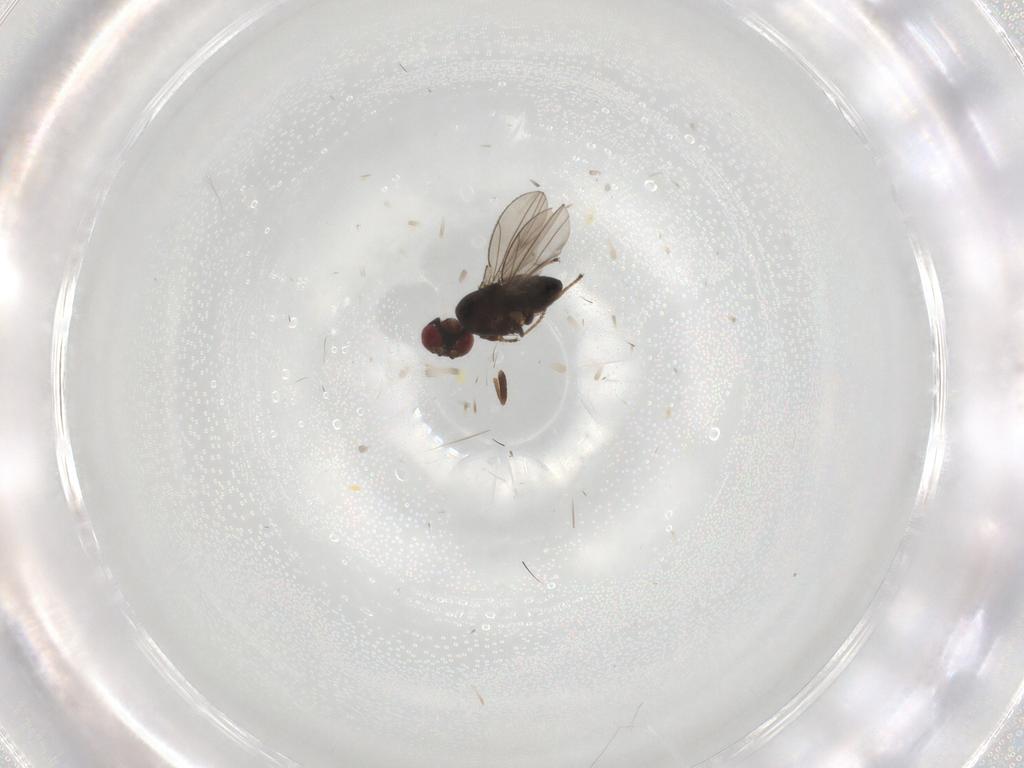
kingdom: Animalia
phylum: Arthropoda
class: Insecta
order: Diptera
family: Ephydridae
